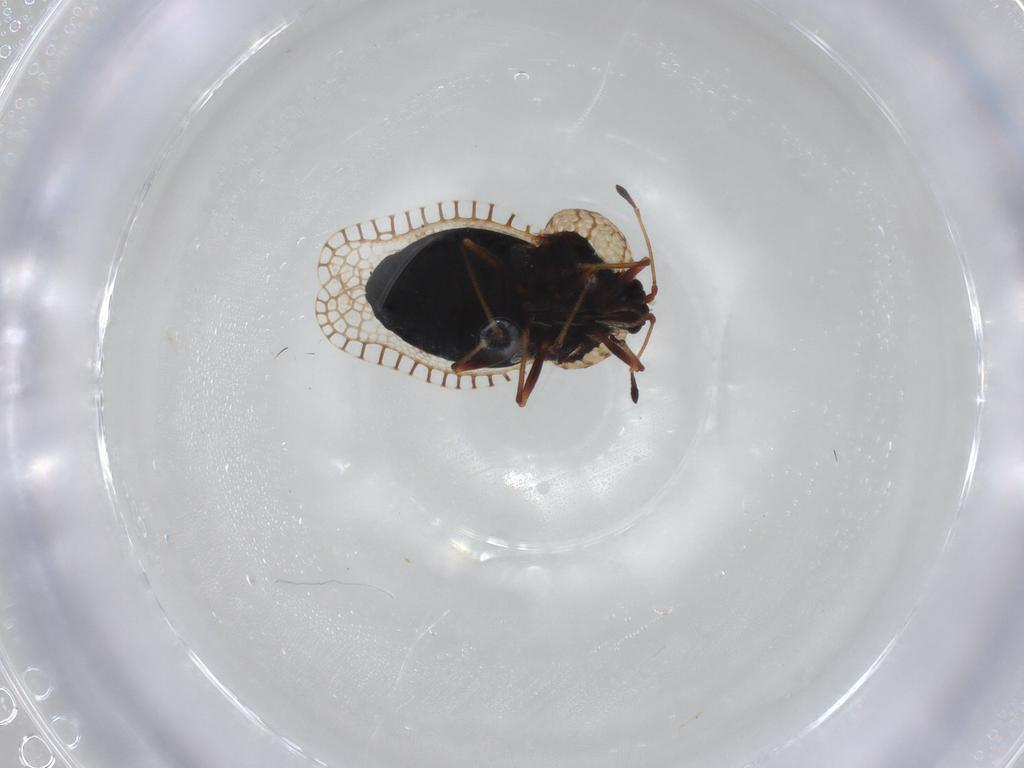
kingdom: Animalia
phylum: Arthropoda
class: Insecta
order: Hemiptera
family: Tingidae
